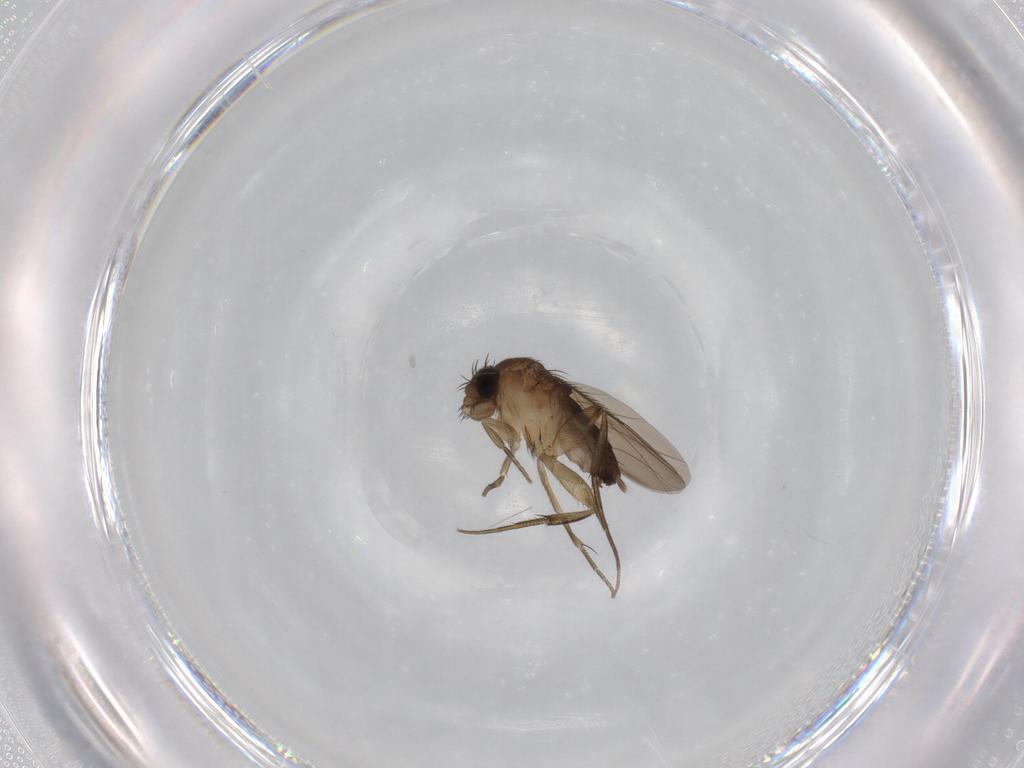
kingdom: Animalia
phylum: Arthropoda
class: Insecta
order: Diptera
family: Phoridae
